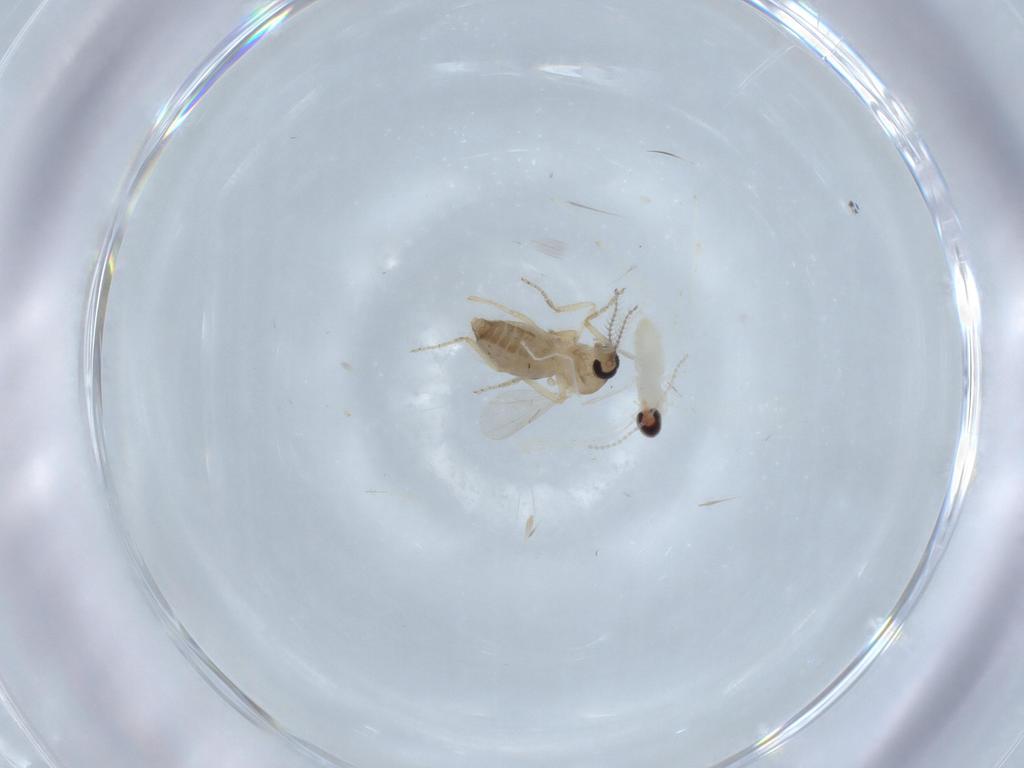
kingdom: Animalia
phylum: Arthropoda
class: Insecta
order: Diptera
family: Ceratopogonidae
